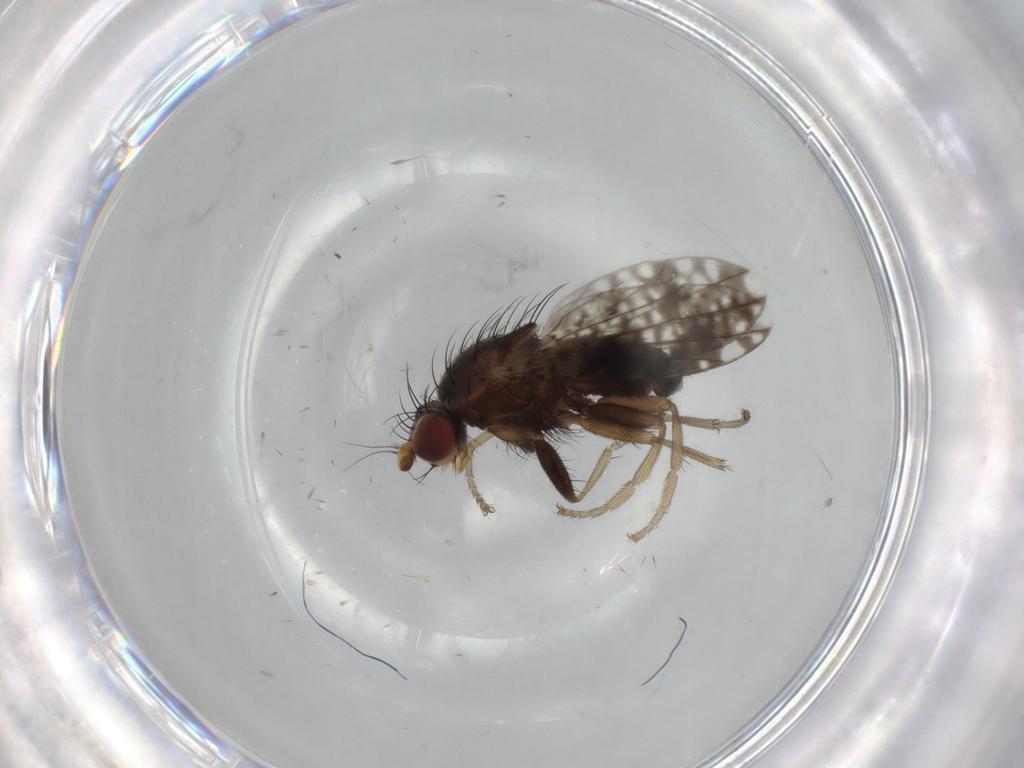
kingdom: Animalia
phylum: Arthropoda
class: Insecta
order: Diptera
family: Tephritidae
